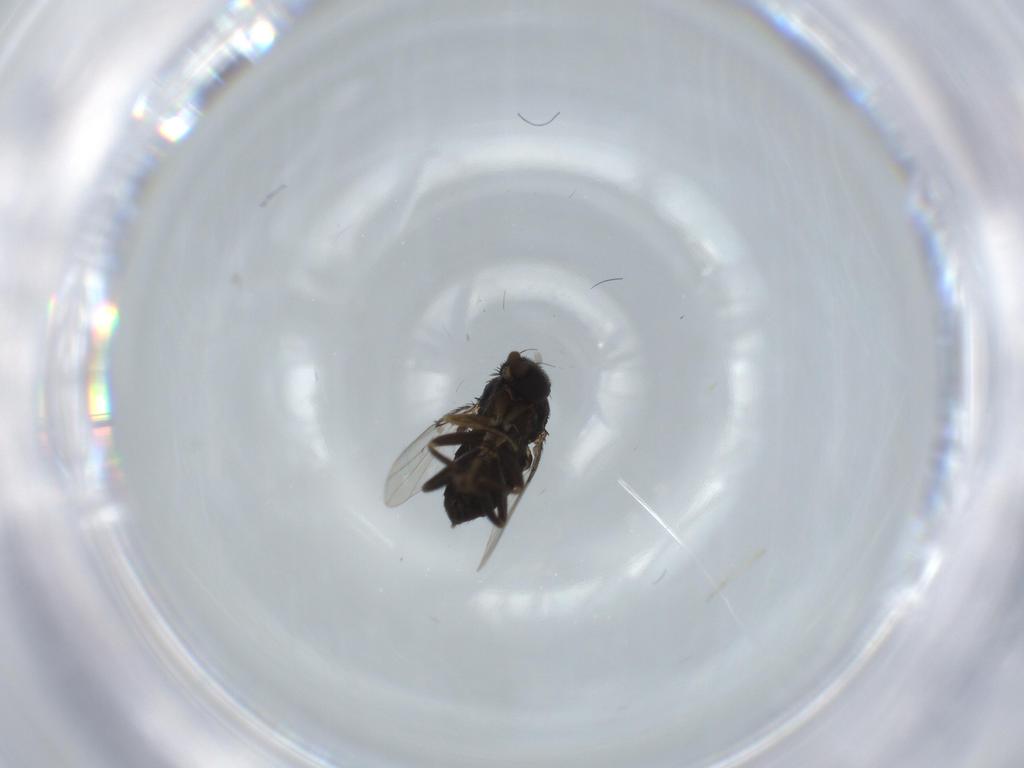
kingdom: Animalia
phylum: Arthropoda
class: Insecta
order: Diptera
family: Phoridae
